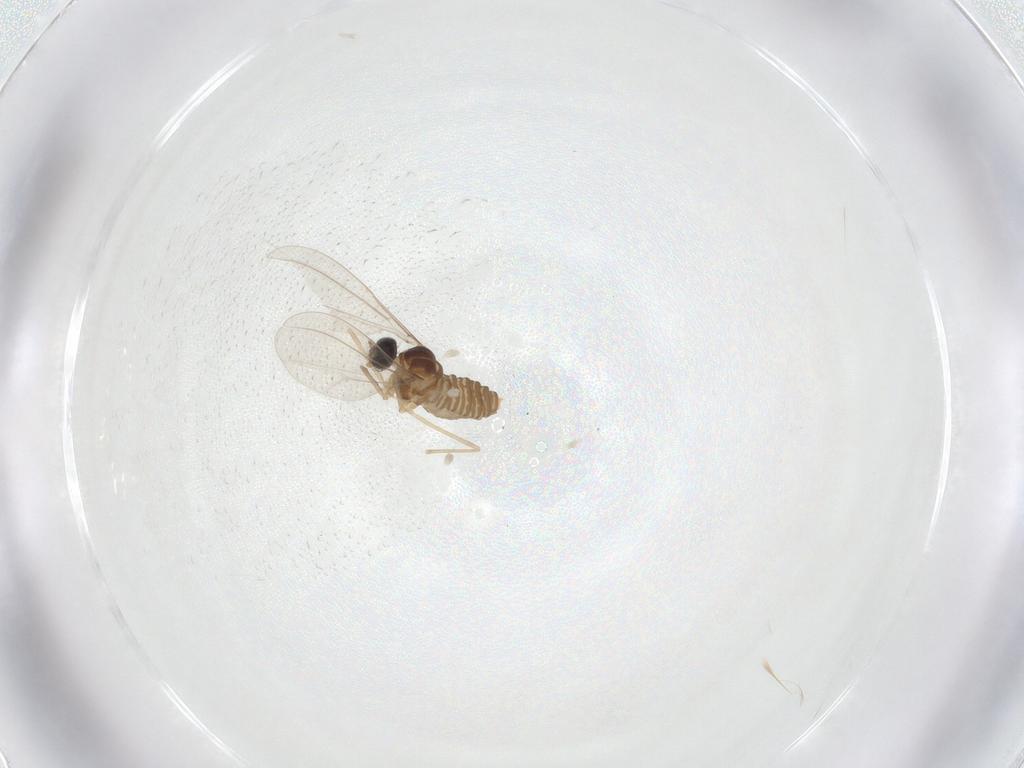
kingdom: Animalia
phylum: Arthropoda
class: Insecta
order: Diptera
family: Cecidomyiidae
